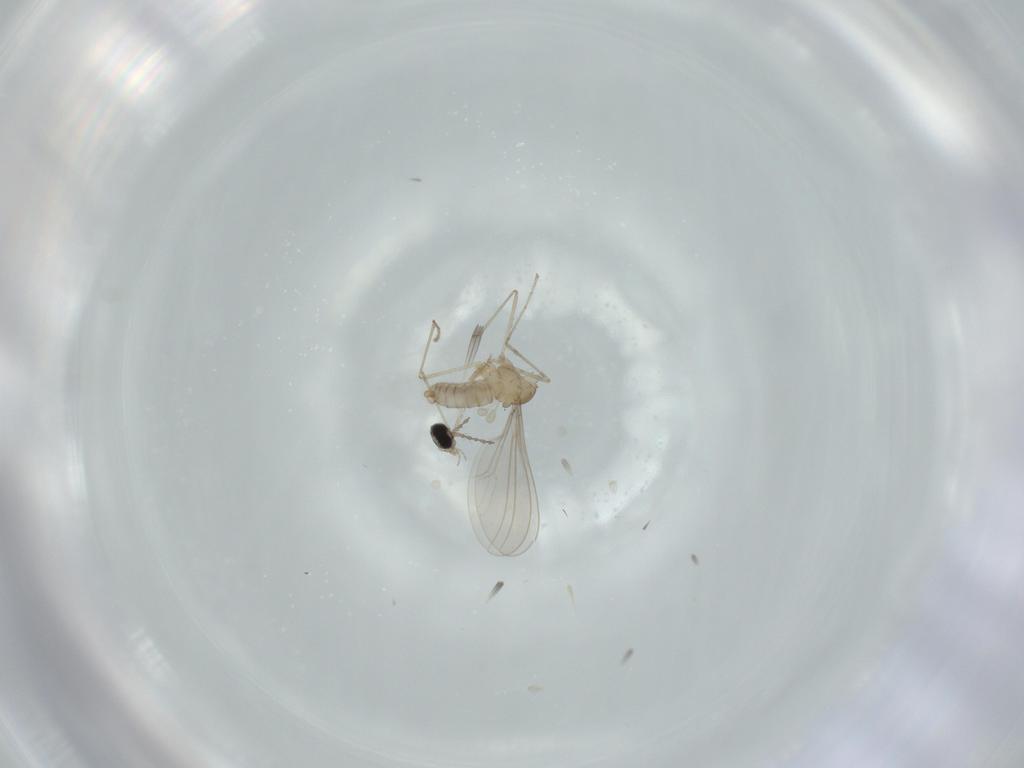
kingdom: Animalia
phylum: Arthropoda
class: Insecta
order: Diptera
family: Cecidomyiidae
